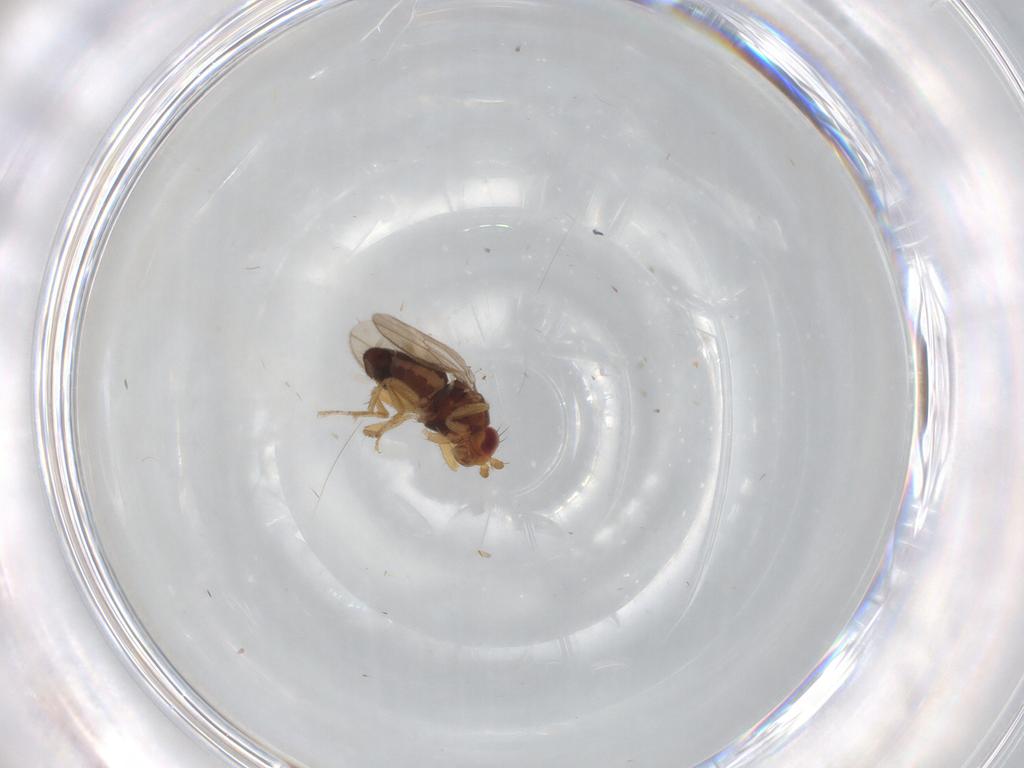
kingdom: Animalia
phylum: Arthropoda
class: Insecta
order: Diptera
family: Sphaeroceridae
